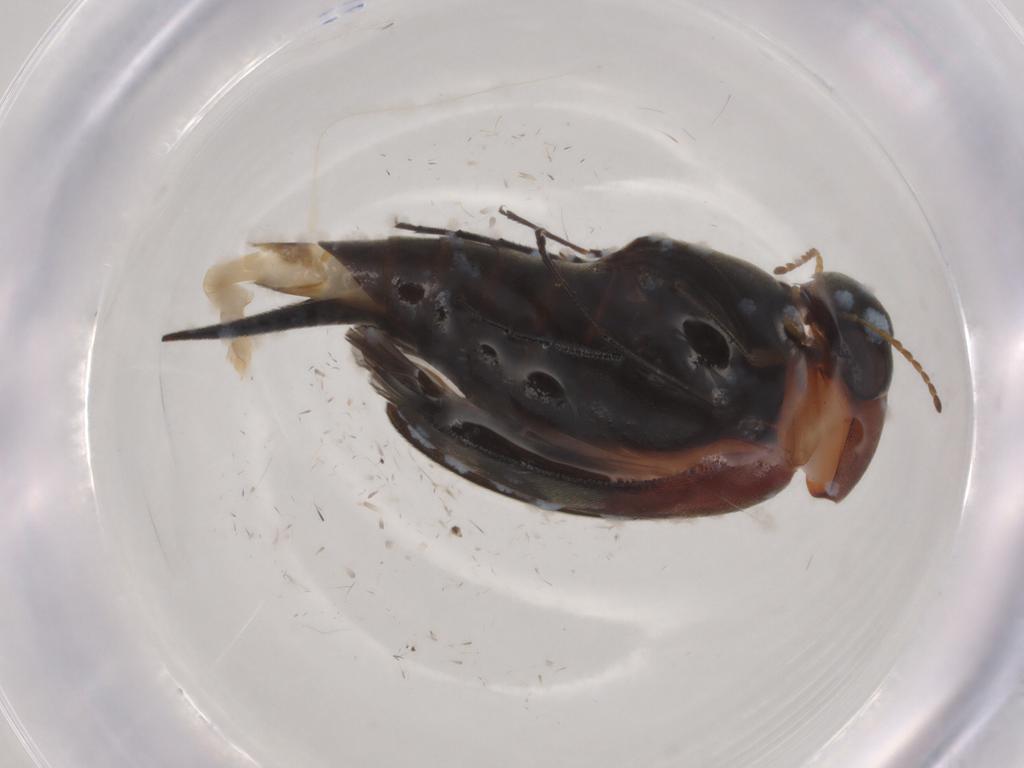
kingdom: Animalia
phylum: Arthropoda
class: Insecta
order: Coleoptera
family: Mordellidae
